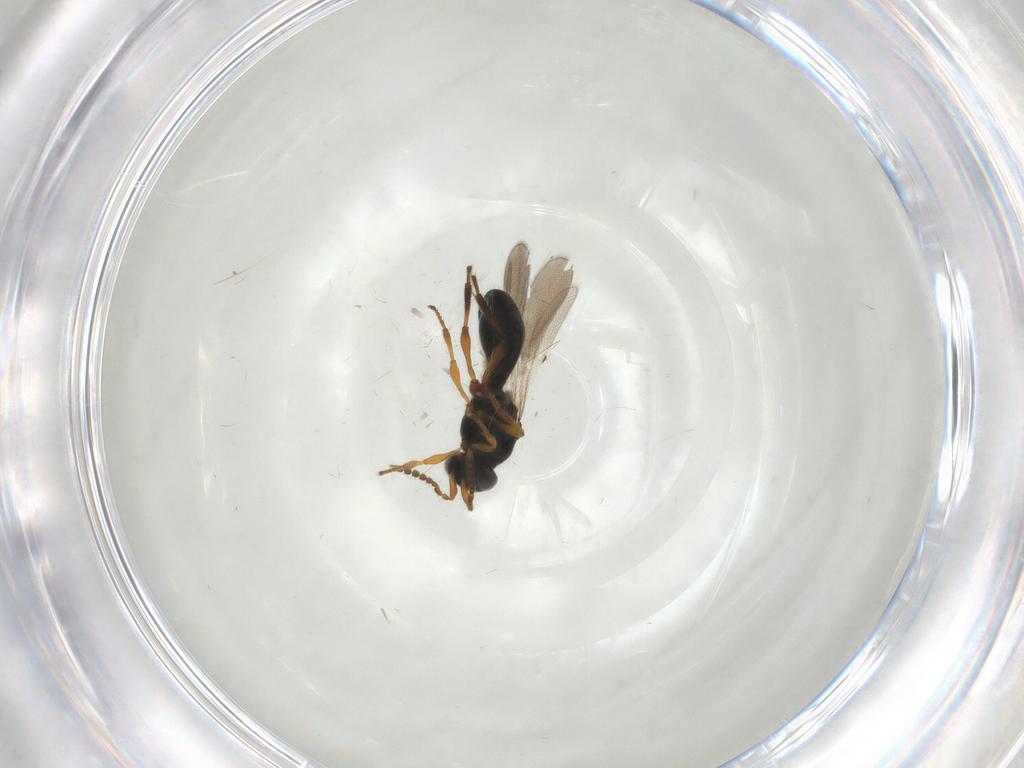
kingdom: Animalia
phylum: Arthropoda
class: Insecta
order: Hymenoptera
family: Platygastridae
